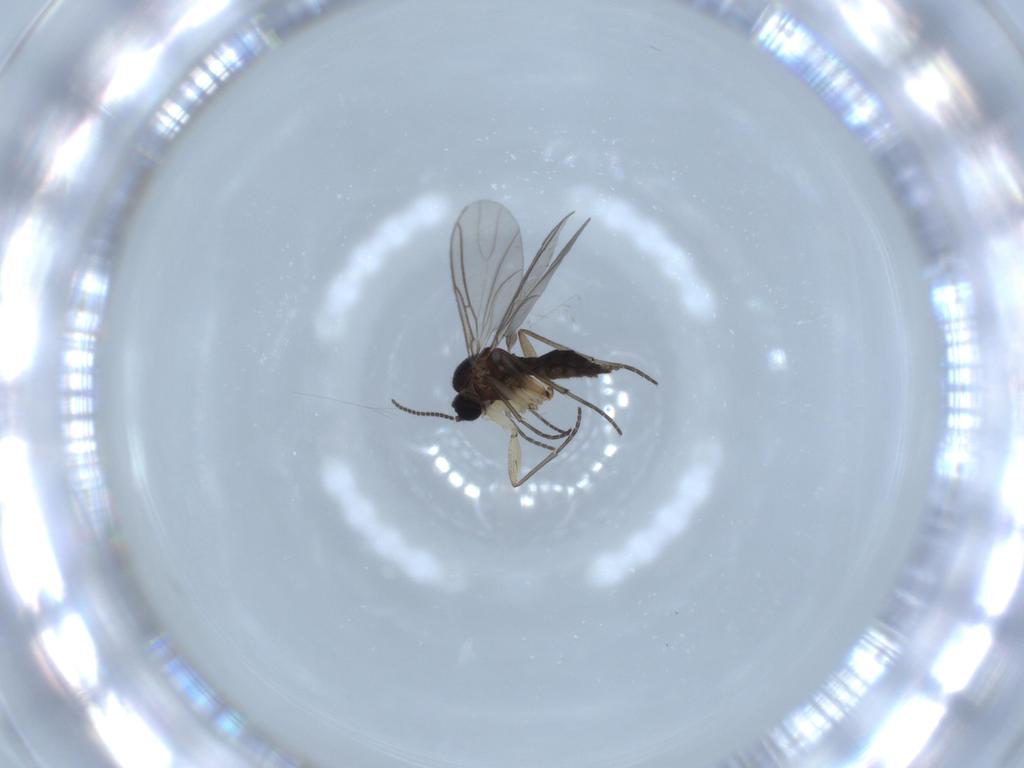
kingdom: Animalia
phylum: Arthropoda
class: Insecta
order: Diptera
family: Sciaridae
